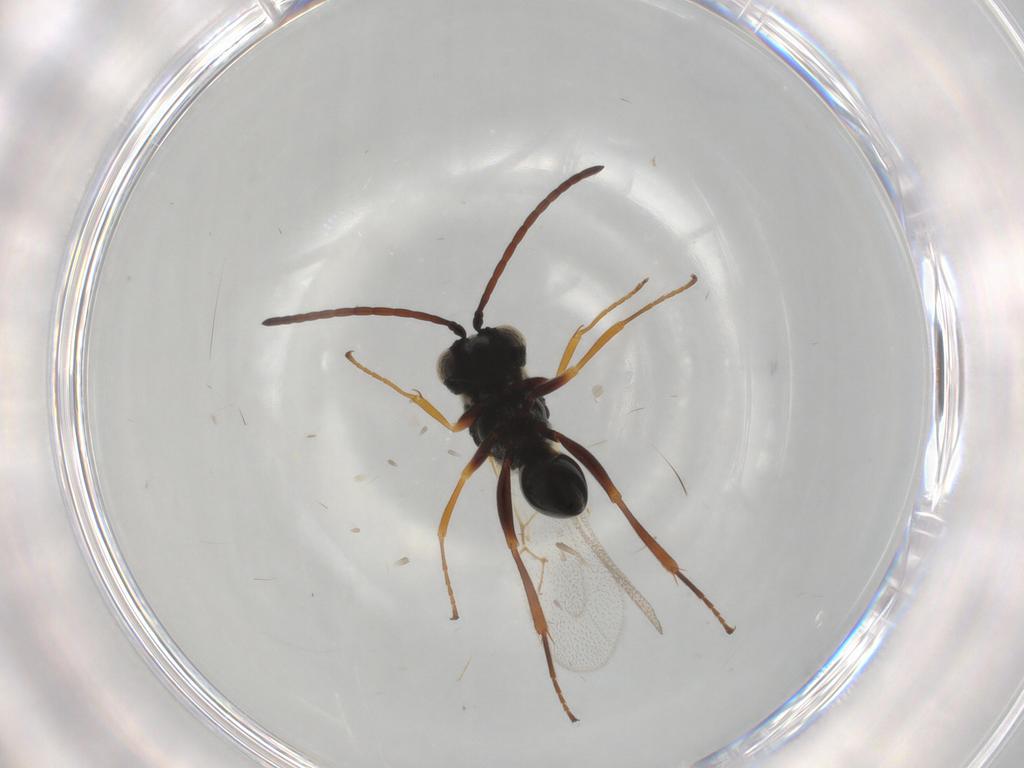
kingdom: Animalia
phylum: Arthropoda
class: Insecta
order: Hymenoptera
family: Figitidae
